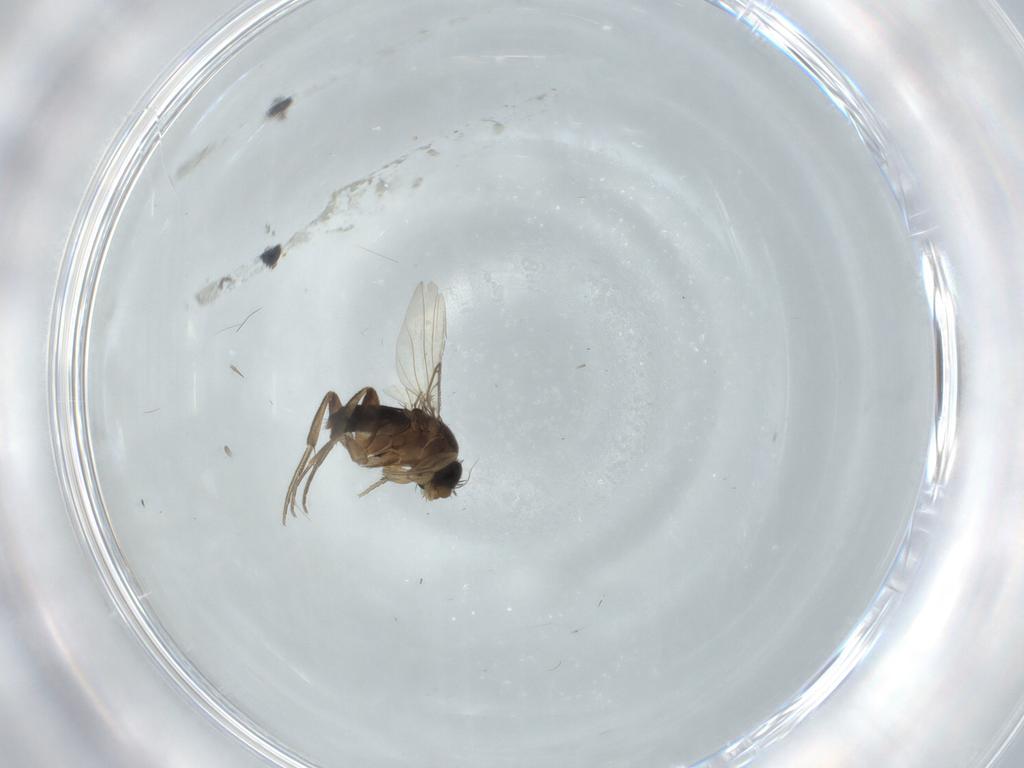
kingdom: Animalia
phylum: Arthropoda
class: Insecta
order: Diptera
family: Phoridae
